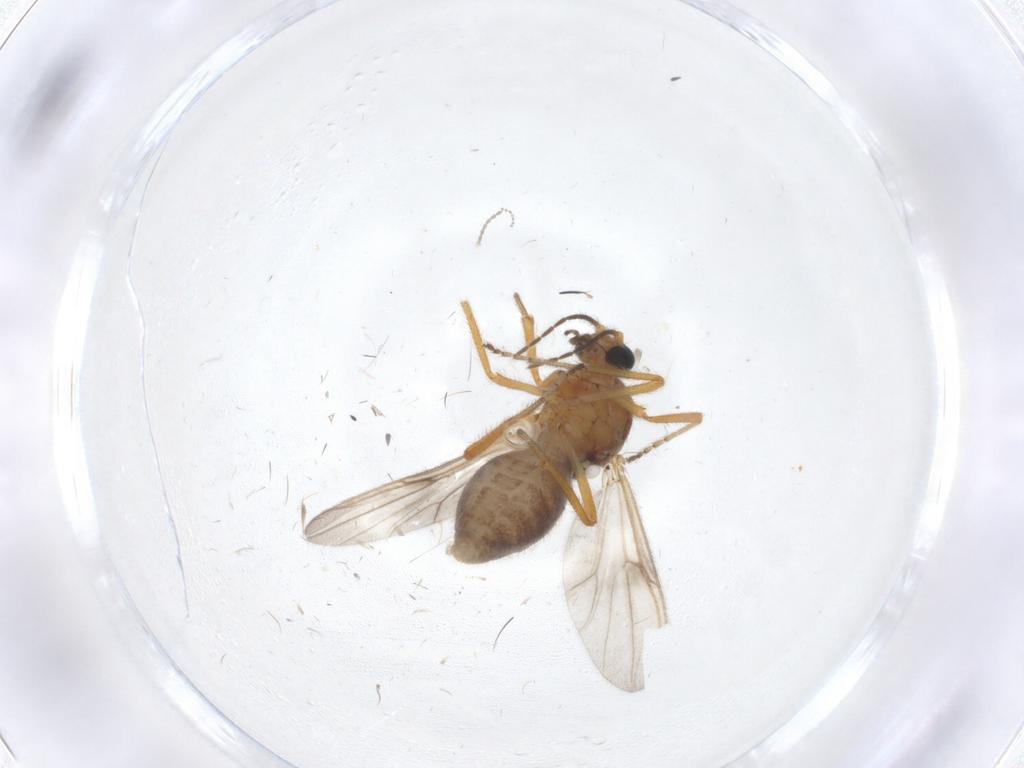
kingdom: Animalia
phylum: Arthropoda
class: Insecta
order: Diptera
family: Ceratopogonidae
